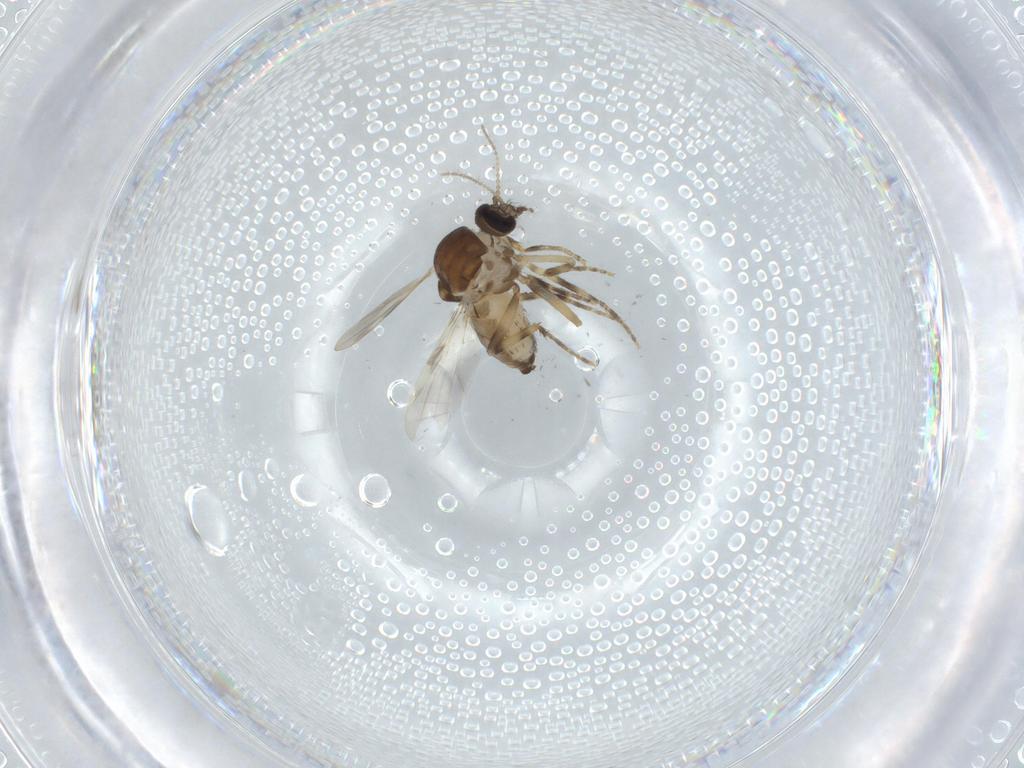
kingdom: Animalia
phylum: Arthropoda
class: Insecta
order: Diptera
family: Ceratopogonidae
